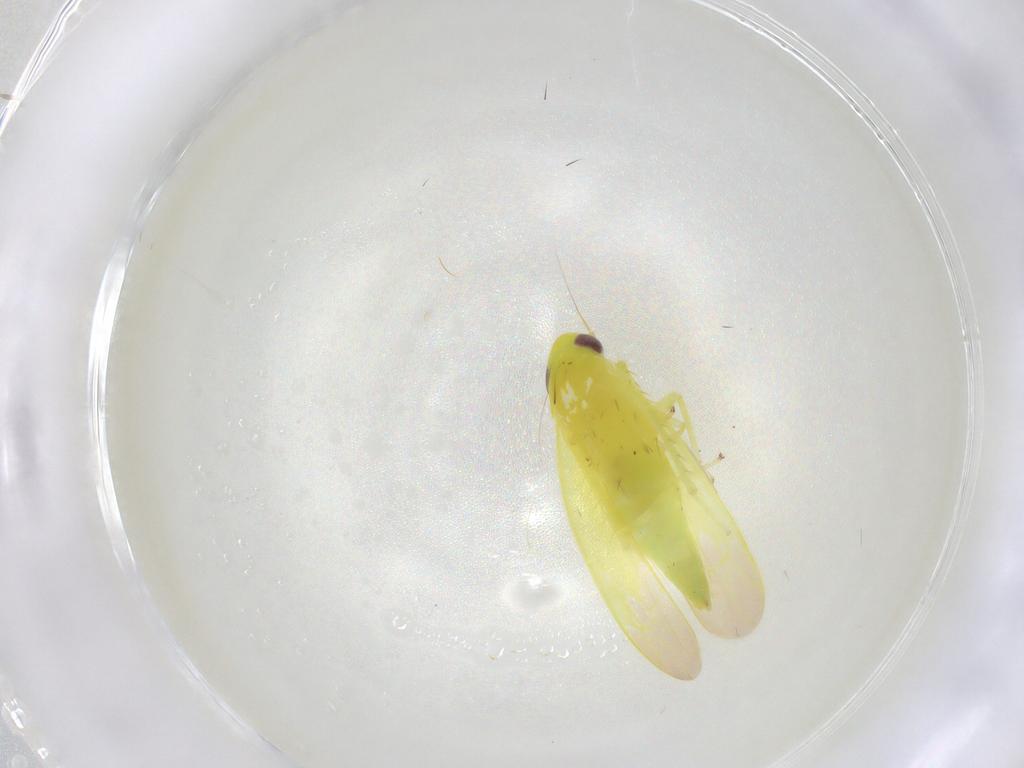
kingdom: Animalia
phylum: Arthropoda
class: Insecta
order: Hemiptera
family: Cicadellidae
